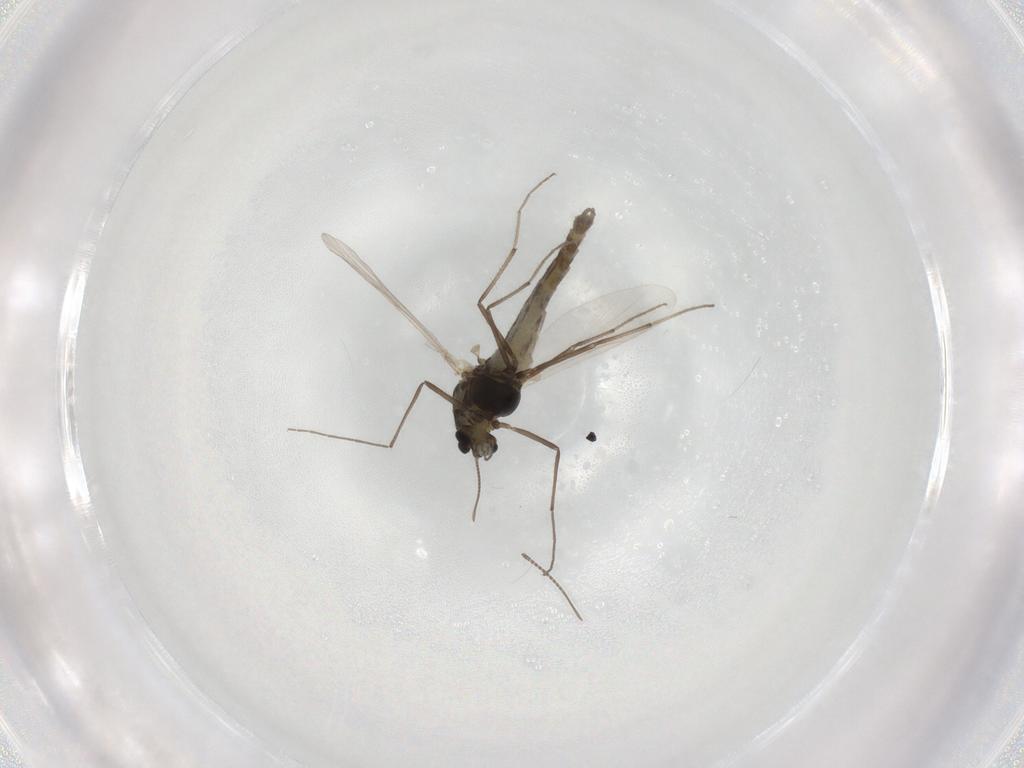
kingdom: Animalia
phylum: Arthropoda
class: Insecta
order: Diptera
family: Chironomidae
